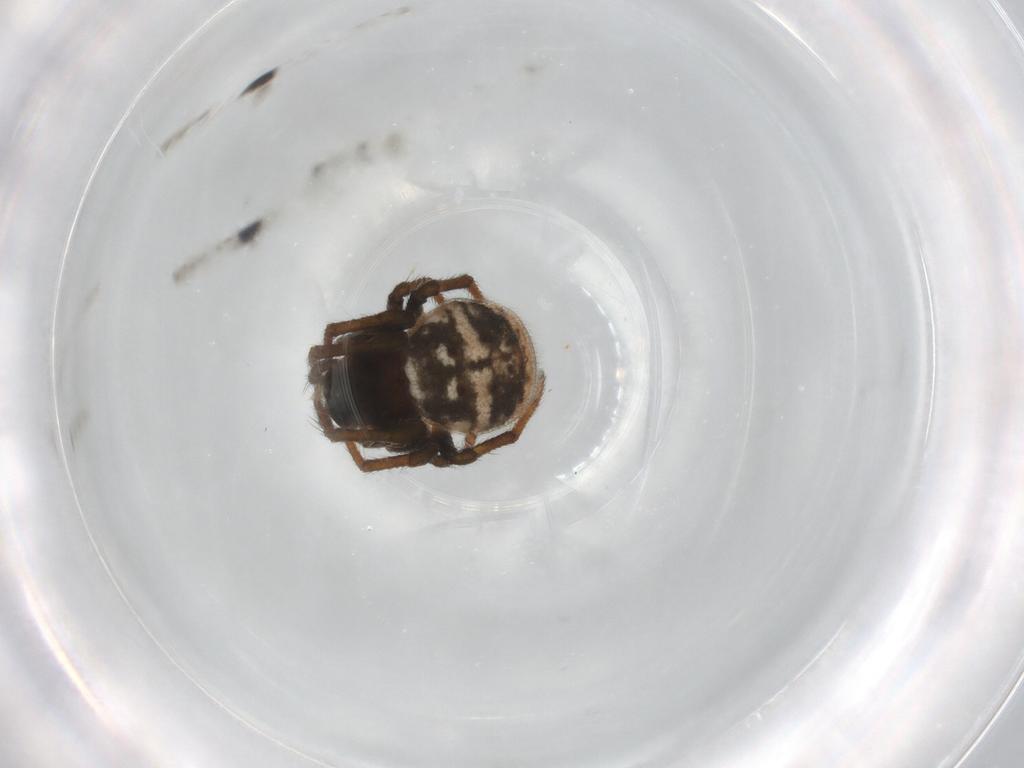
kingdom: Animalia
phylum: Arthropoda
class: Arachnida
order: Araneae
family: Araneidae
